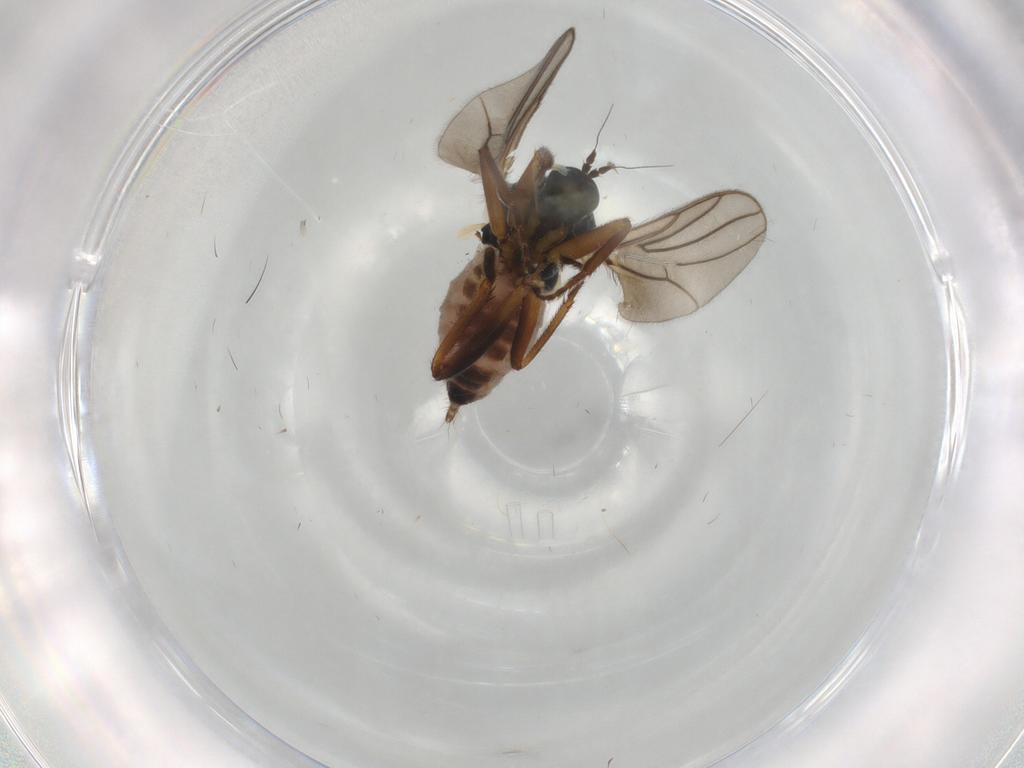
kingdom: Animalia
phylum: Arthropoda
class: Insecta
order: Diptera
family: Hybotidae
